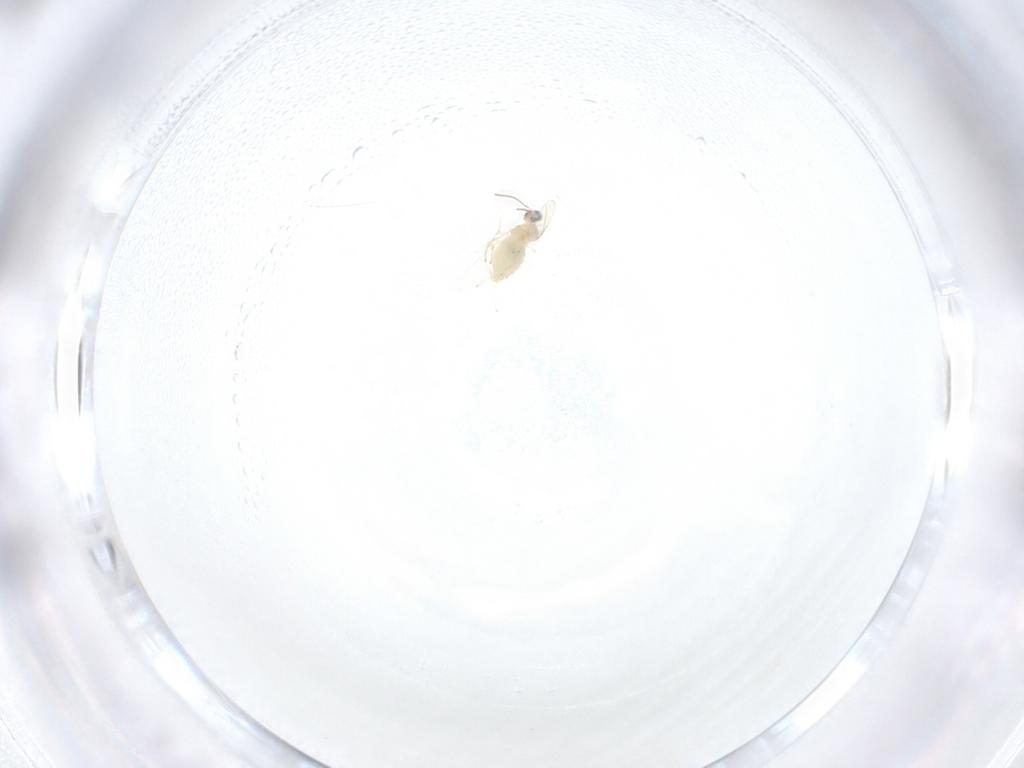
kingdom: Animalia
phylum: Arthropoda
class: Insecta
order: Diptera
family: Cecidomyiidae
